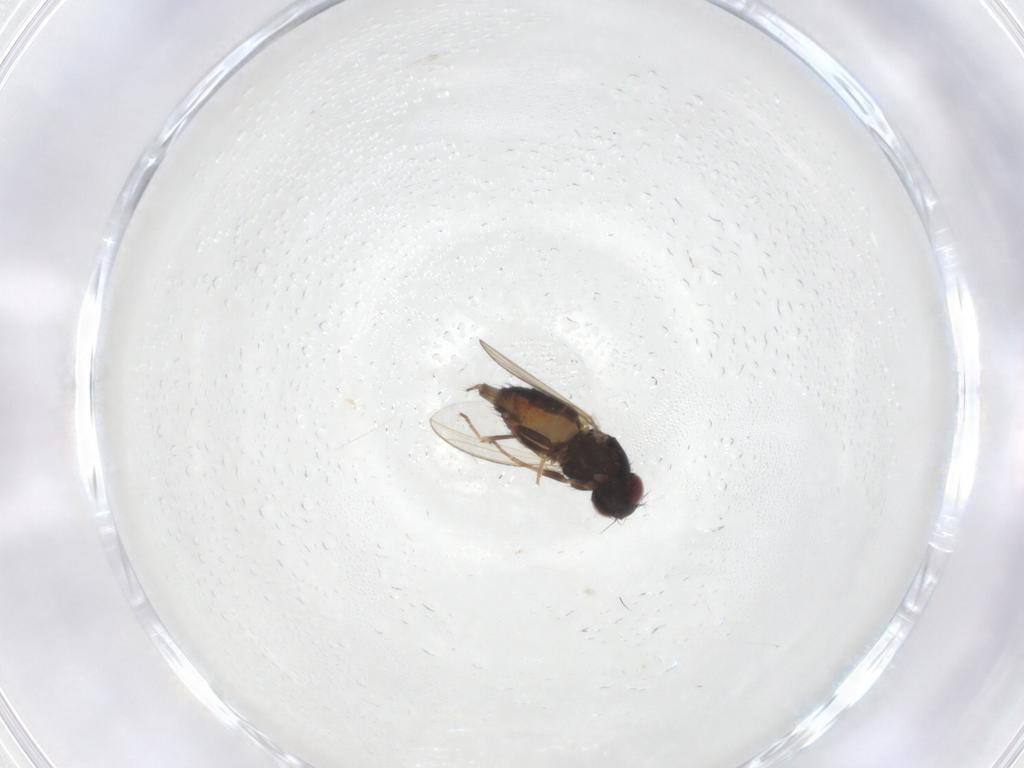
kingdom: Animalia
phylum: Arthropoda
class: Insecta
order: Diptera
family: Carnidae
